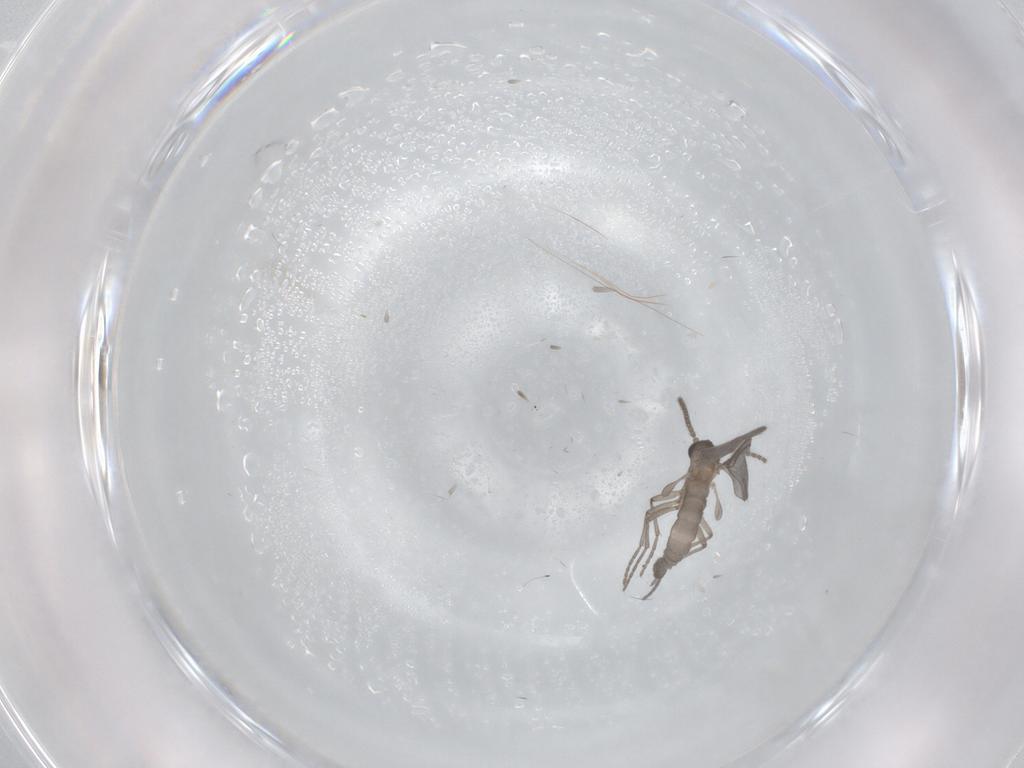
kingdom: Animalia
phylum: Arthropoda
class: Insecta
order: Diptera
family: Sciaridae
